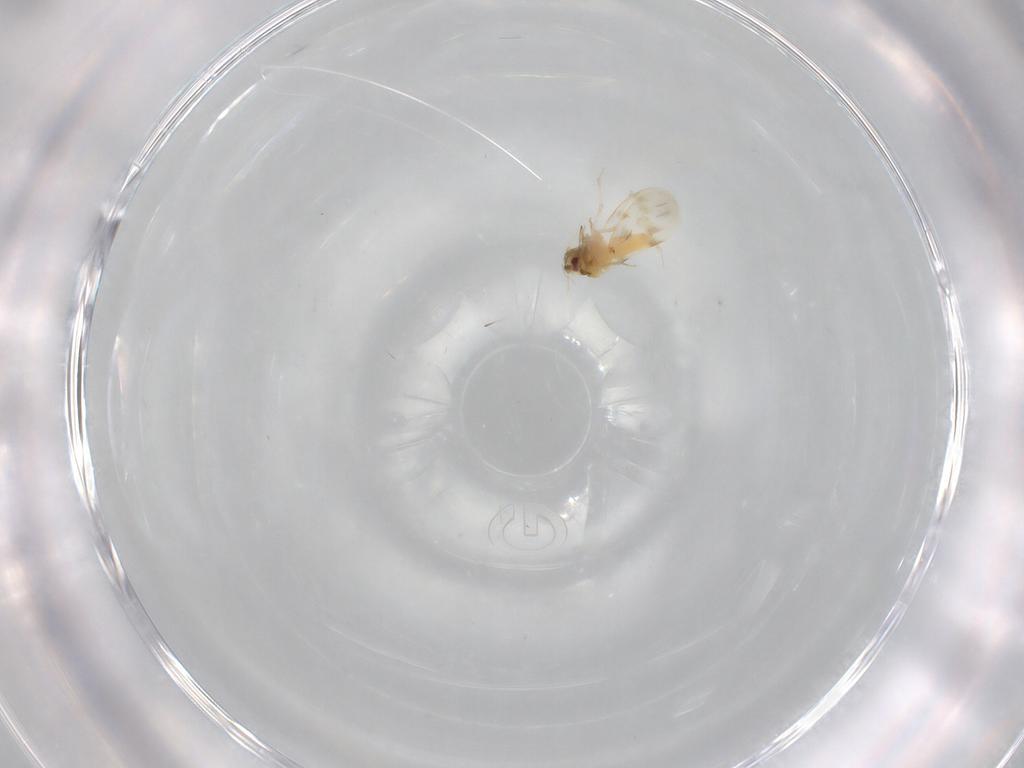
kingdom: Animalia
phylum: Arthropoda
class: Insecta
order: Hemiptera
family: Aleyrodidae
